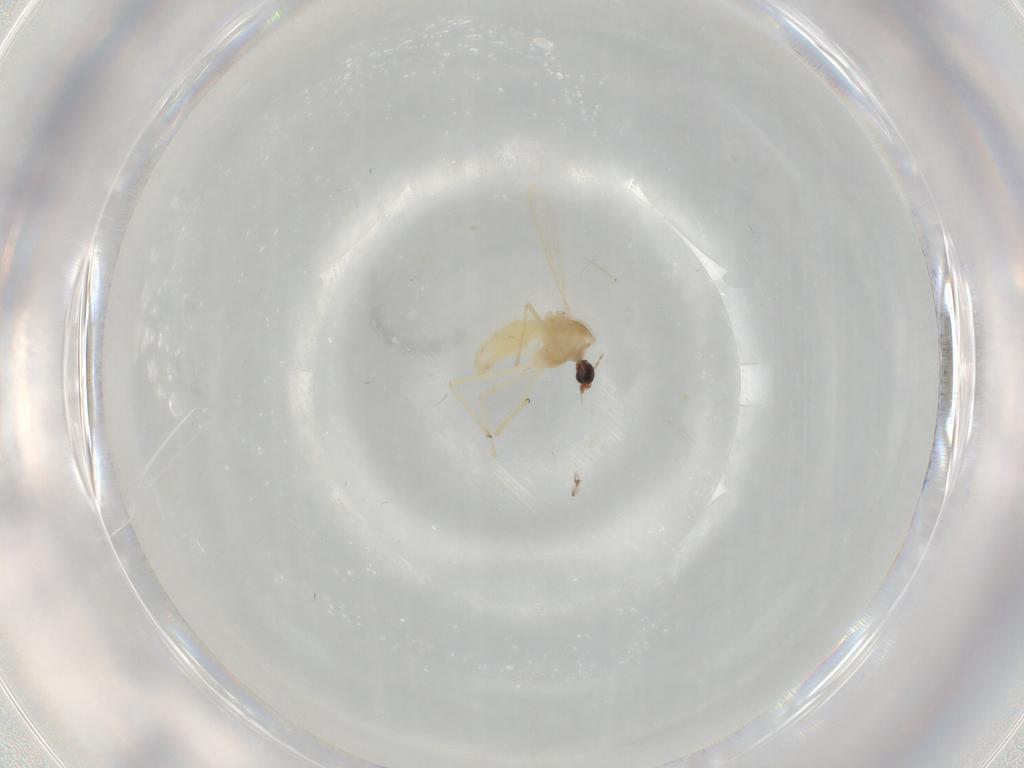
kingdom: Animalia
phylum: Arthropoda
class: Insecta
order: Diptera
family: Chironomidae
